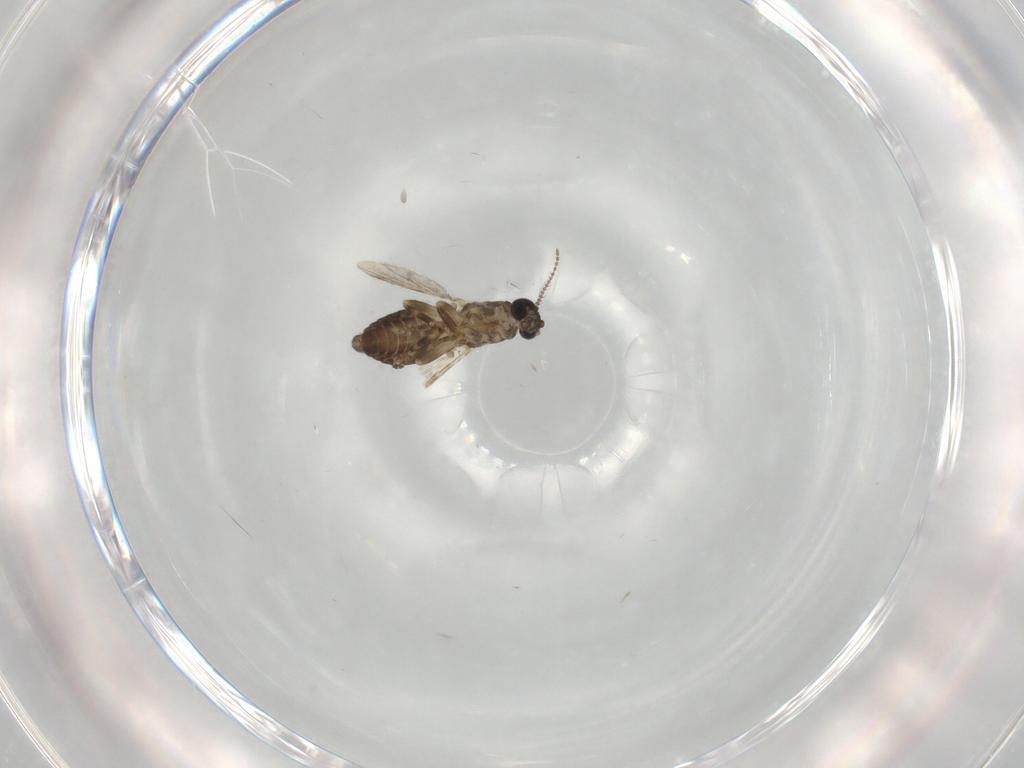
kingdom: Animalia
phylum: Arthropoda
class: Insecta
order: Diptera
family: Ceratopogonidae
